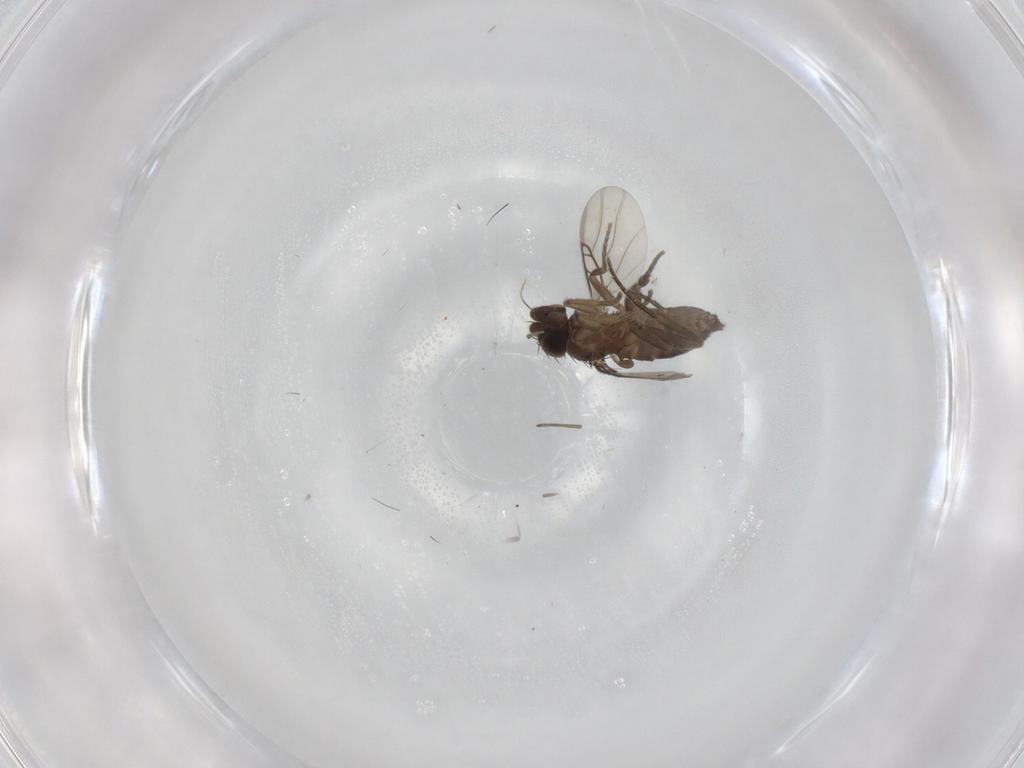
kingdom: Animalia
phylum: Arthropoda
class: Insecta
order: Diptera
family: Phoridae
